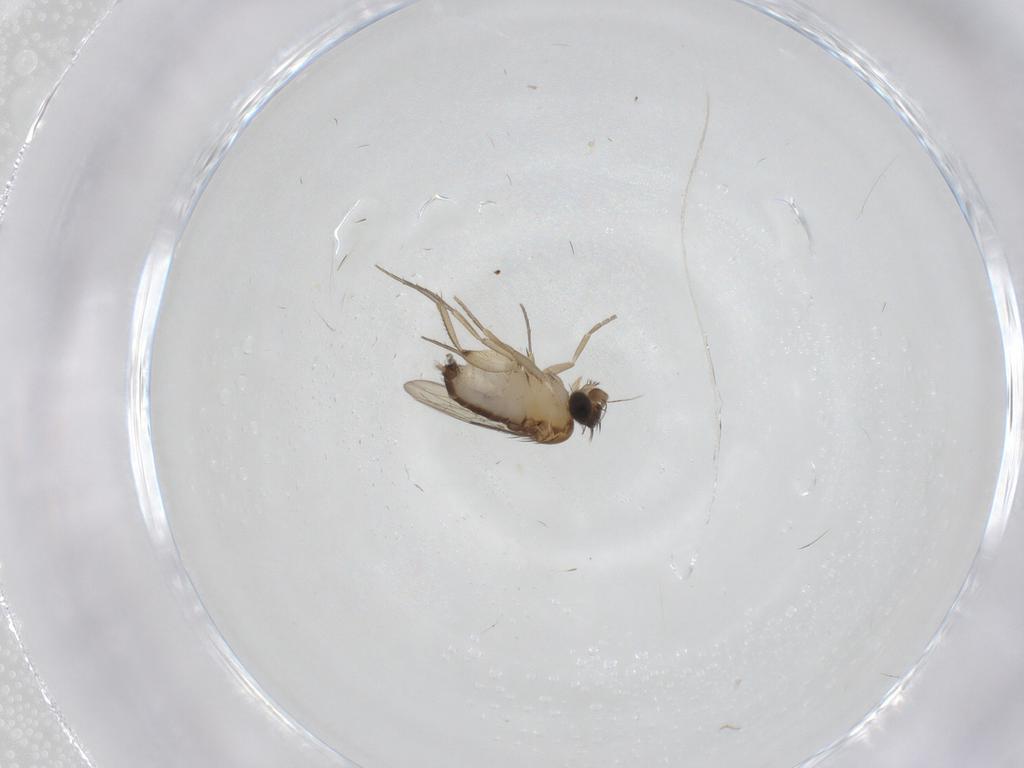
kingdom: Animalia
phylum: Arthropoda
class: Insecta
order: Diptera
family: Phoridae
